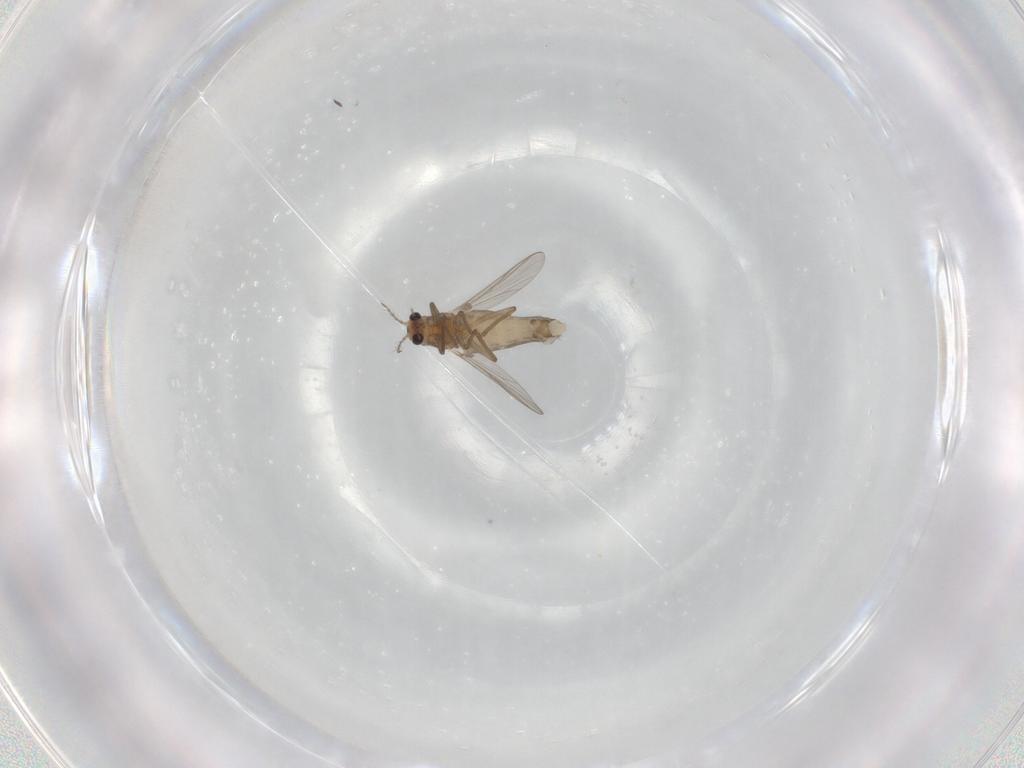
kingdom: Animalia
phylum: Arthropoda
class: Insecta
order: Diptera
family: Chironomidae
